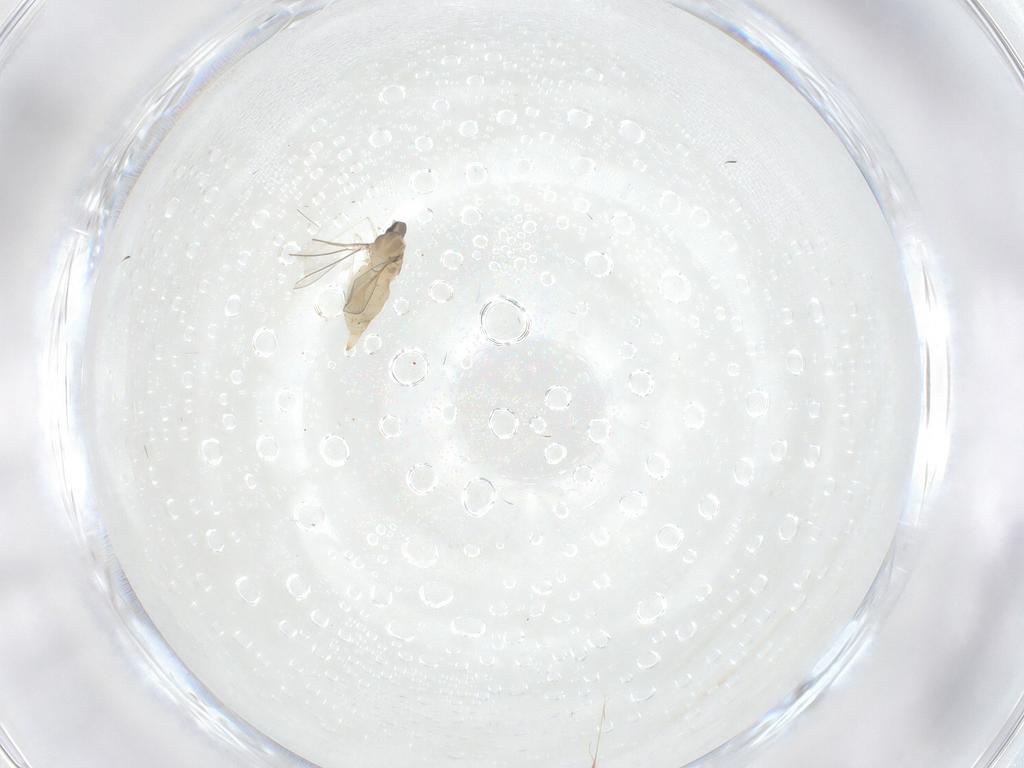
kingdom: Animalia
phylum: Arthropoda
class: Insecta
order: Diptera
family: Cecidomyiidae
